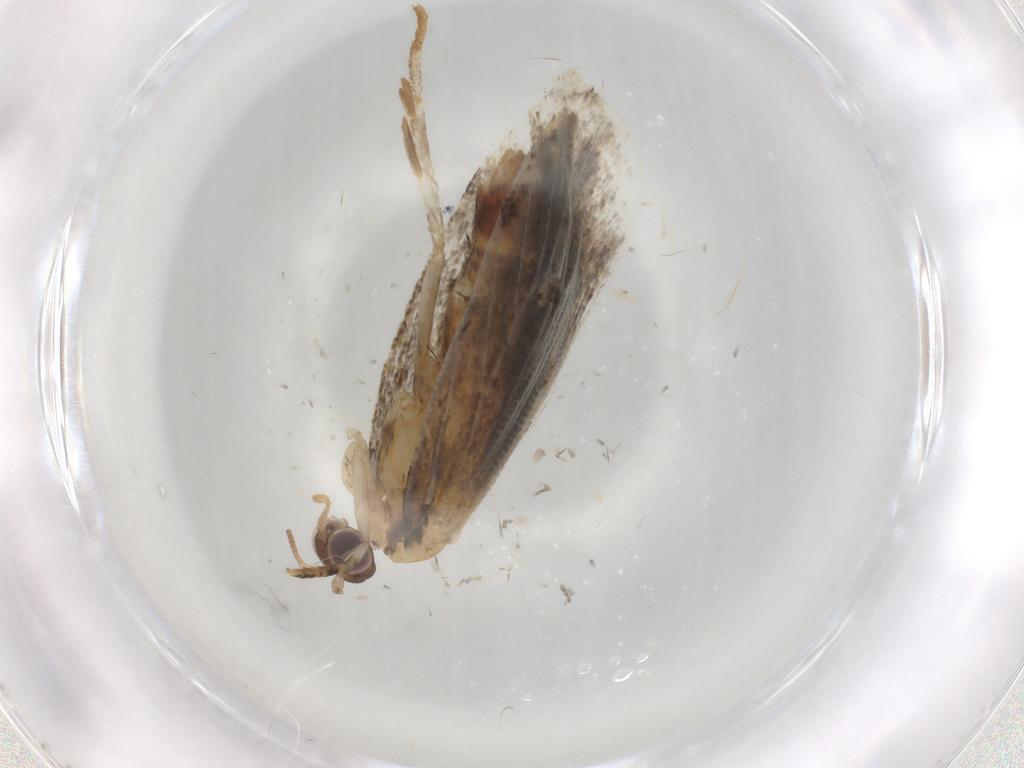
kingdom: Animalia
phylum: Arthropoda
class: Insecta
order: Lepidoptera
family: Tortricidae
